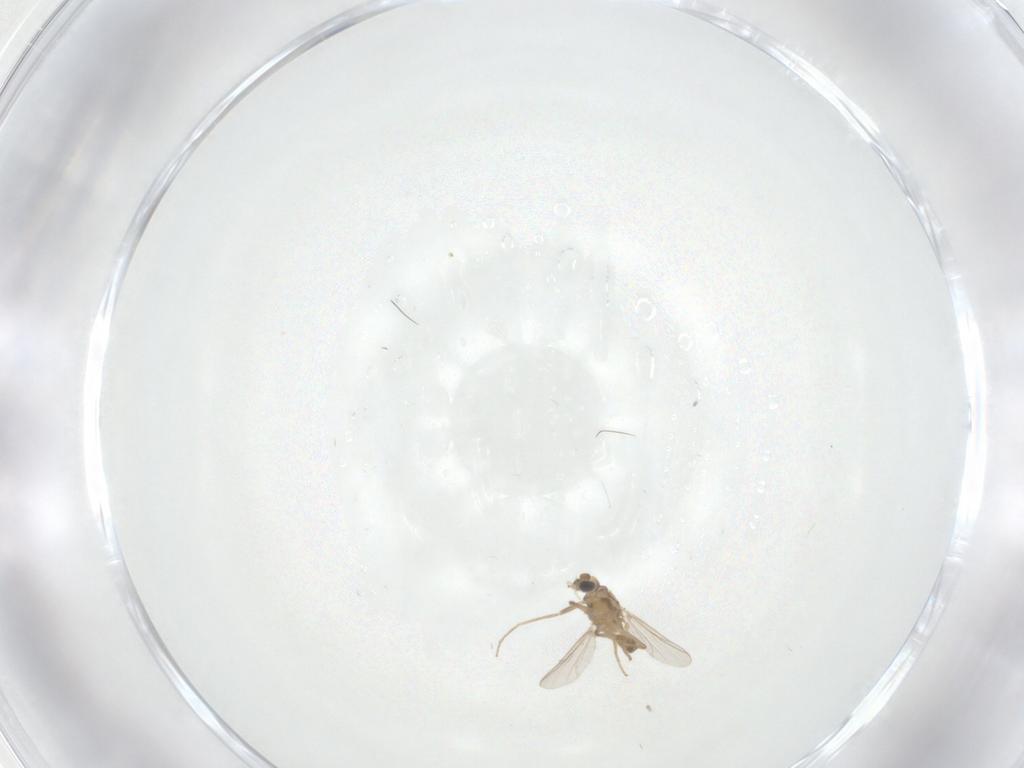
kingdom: Animalia
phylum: Arthropoda
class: Insecta
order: Diptera
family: Chironomidae
